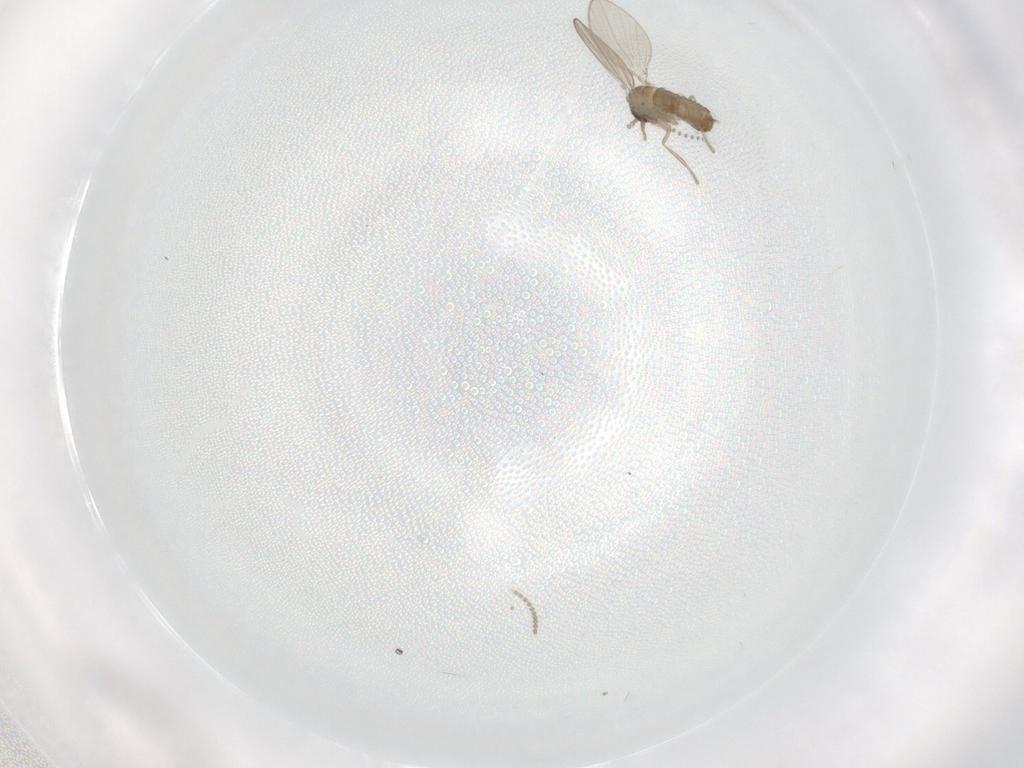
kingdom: Animalia
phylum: Arthropoda
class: Insecta
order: Diptera
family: Psychodidae
